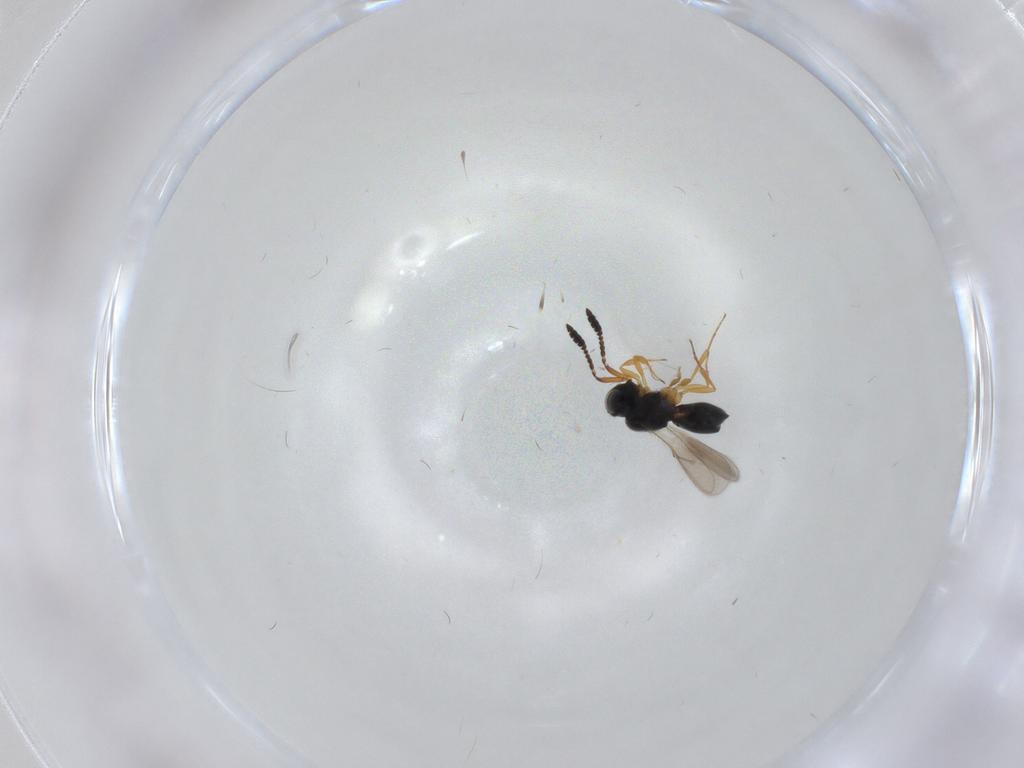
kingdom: Animalia
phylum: Arthropoda
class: Insecta
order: Hymenoptera
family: Scelionidae
